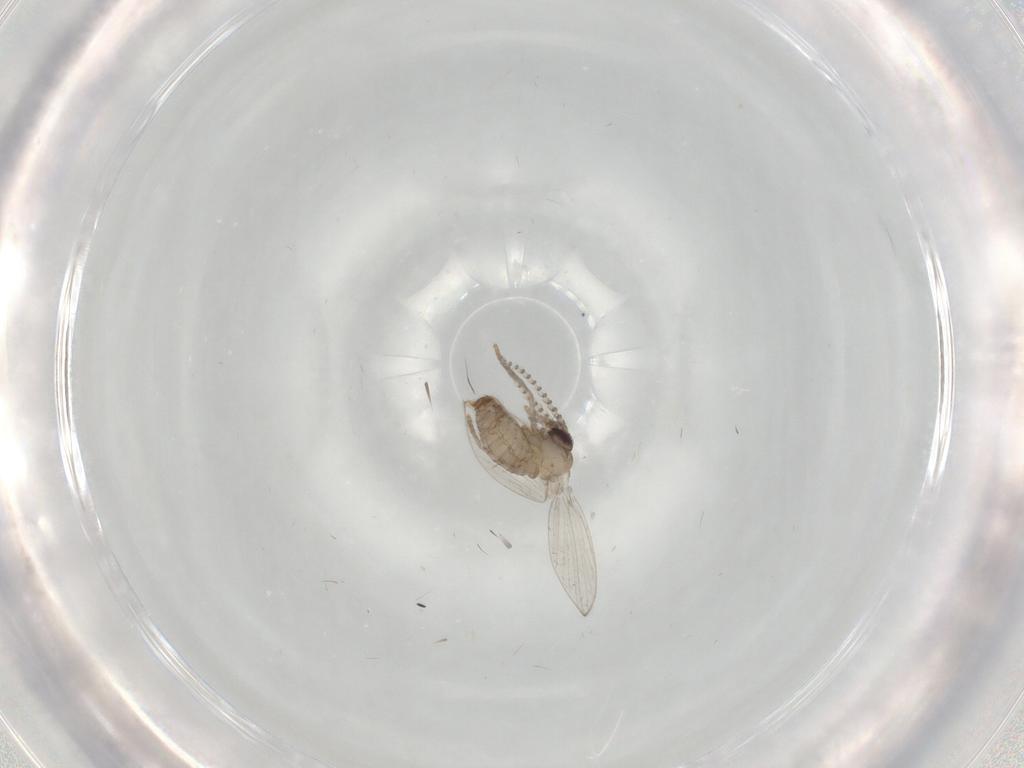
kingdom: Animalia
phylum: Arthropoda
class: Insecta
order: Diptera
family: Psychodidae
